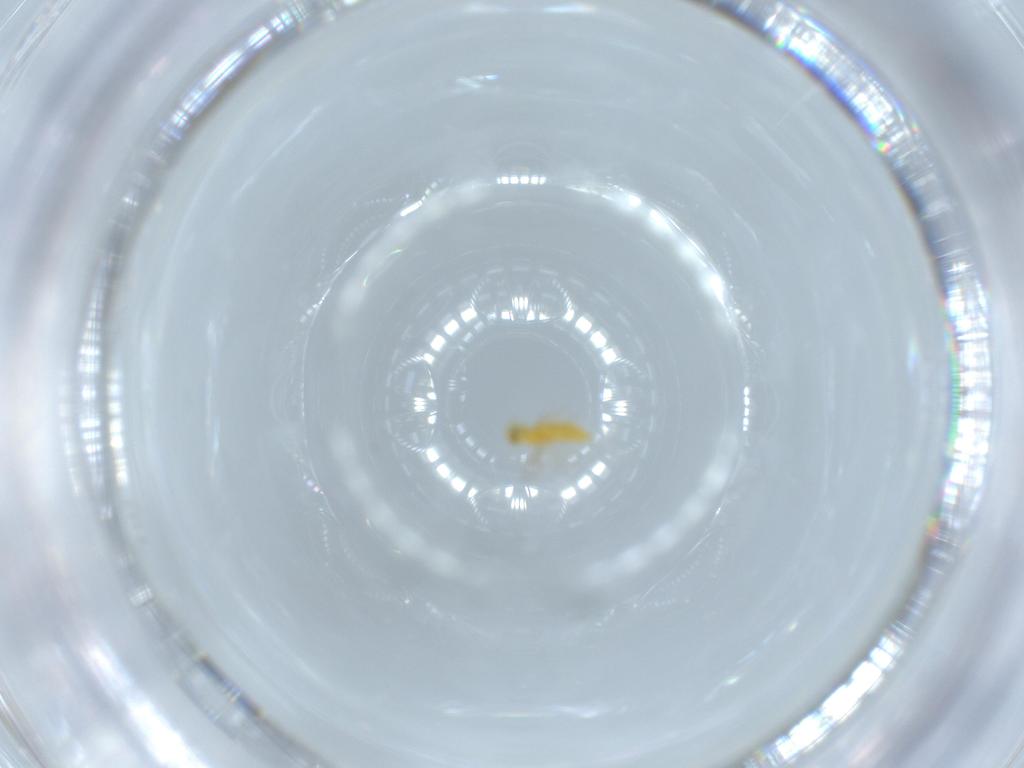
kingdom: Animalia
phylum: Arthropoda
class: Insecta
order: Hymenoptera
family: Aphelinidae
